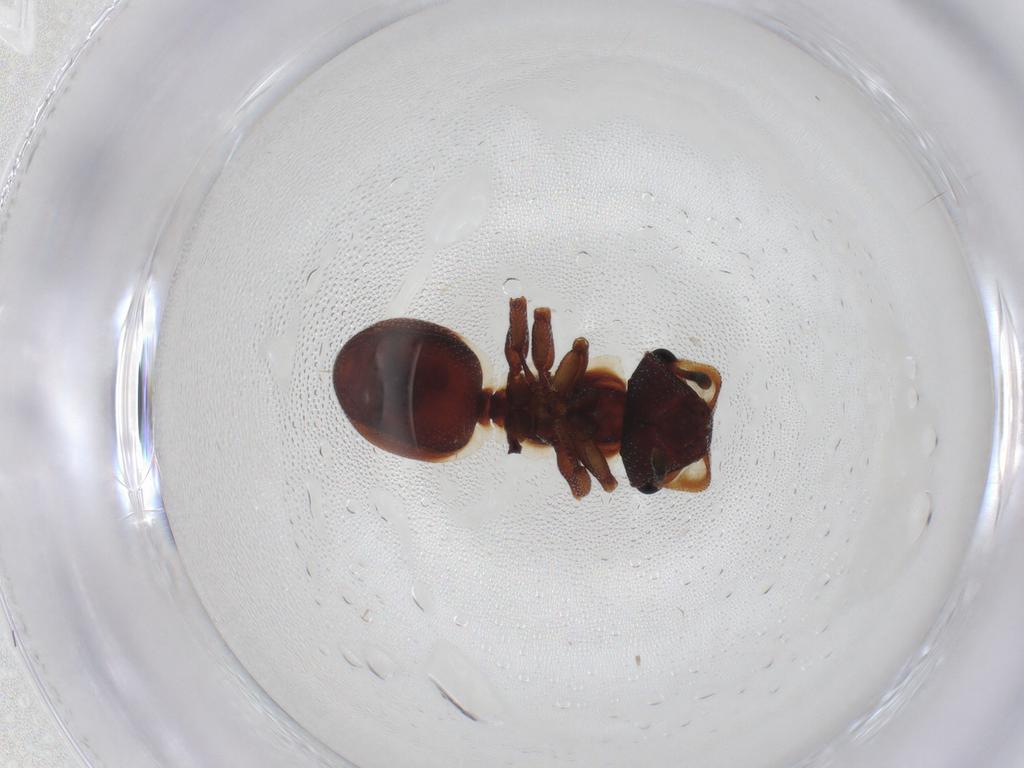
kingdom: Animalia
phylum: Arthropoda
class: Insecta
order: Hymenoptera
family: Formicidae
